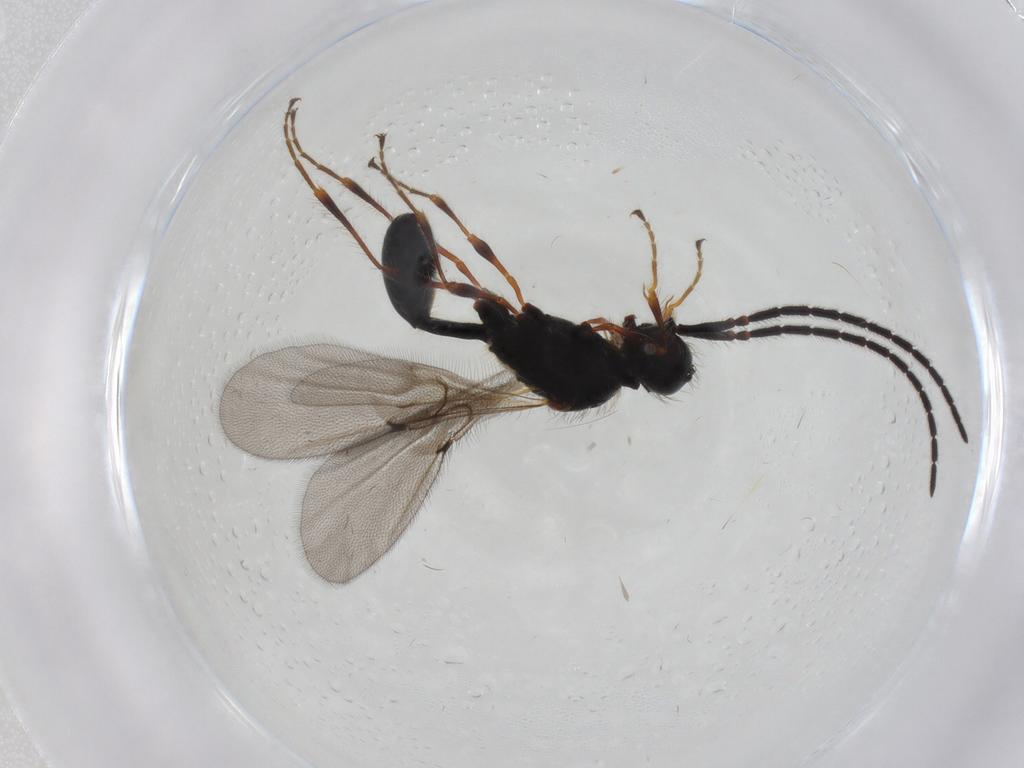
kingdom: Animalia
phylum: Arthropoda
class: Insecta
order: Hymenoptera
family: Diapriidae
